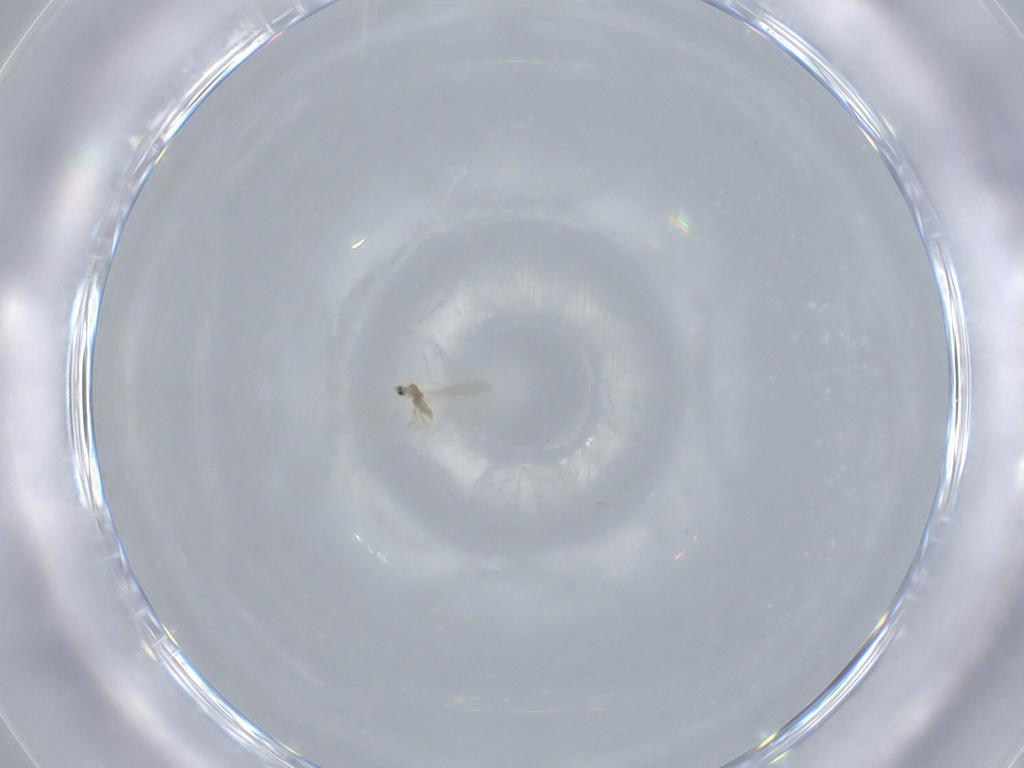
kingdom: Animalia
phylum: Arthropoda
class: Insecta
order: Hemiptera
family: Diaspididae
